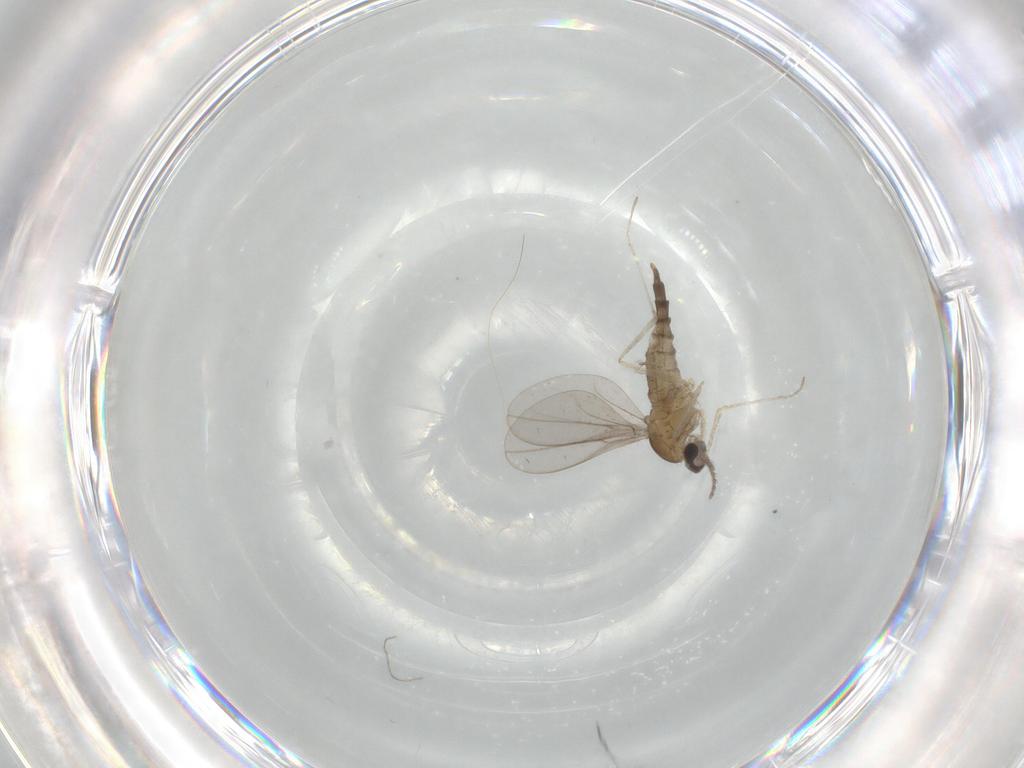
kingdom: Animalia
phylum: Arthropoda
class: Insecta
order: Diptera
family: Cecidomyiidae
